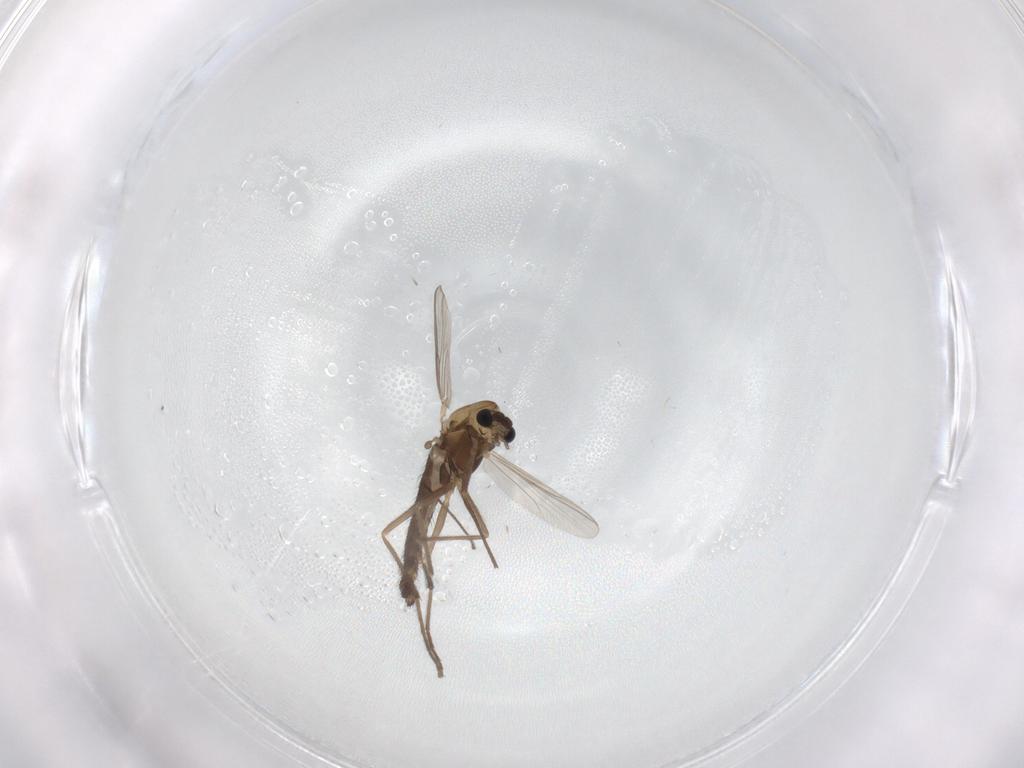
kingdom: Animalia
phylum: Arthropoda
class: Insecta
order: Diptera
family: Chironomidae
